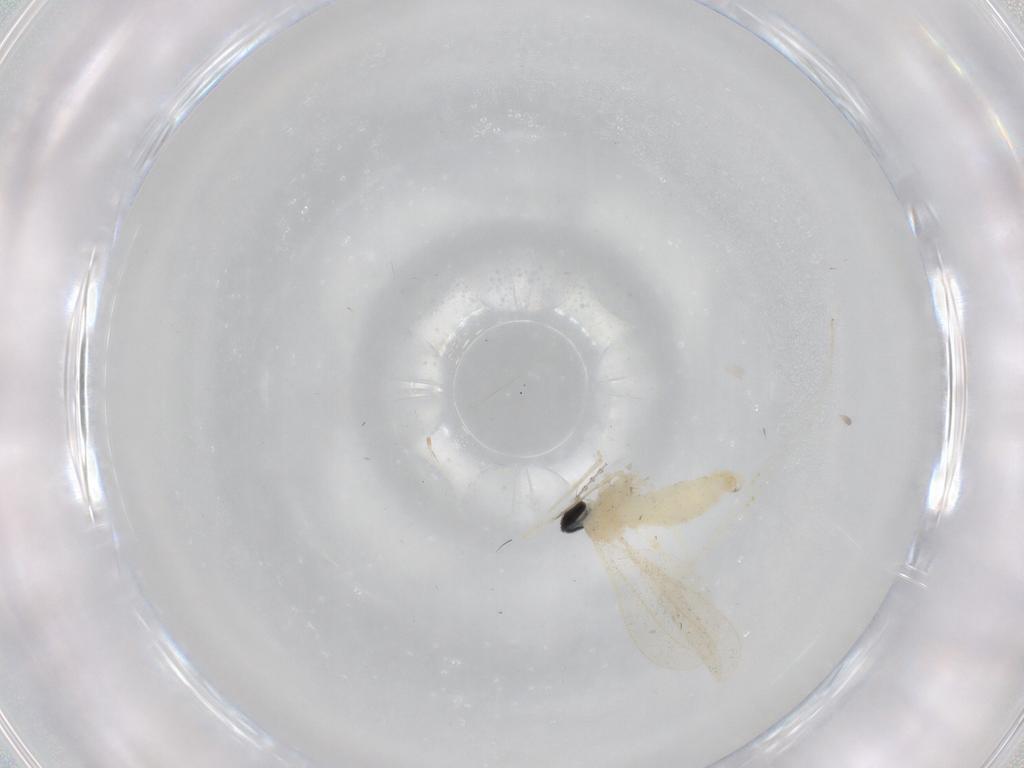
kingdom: Animalia
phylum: Arthropoda
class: Insecta
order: Diptera
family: Cecidomyiidae
